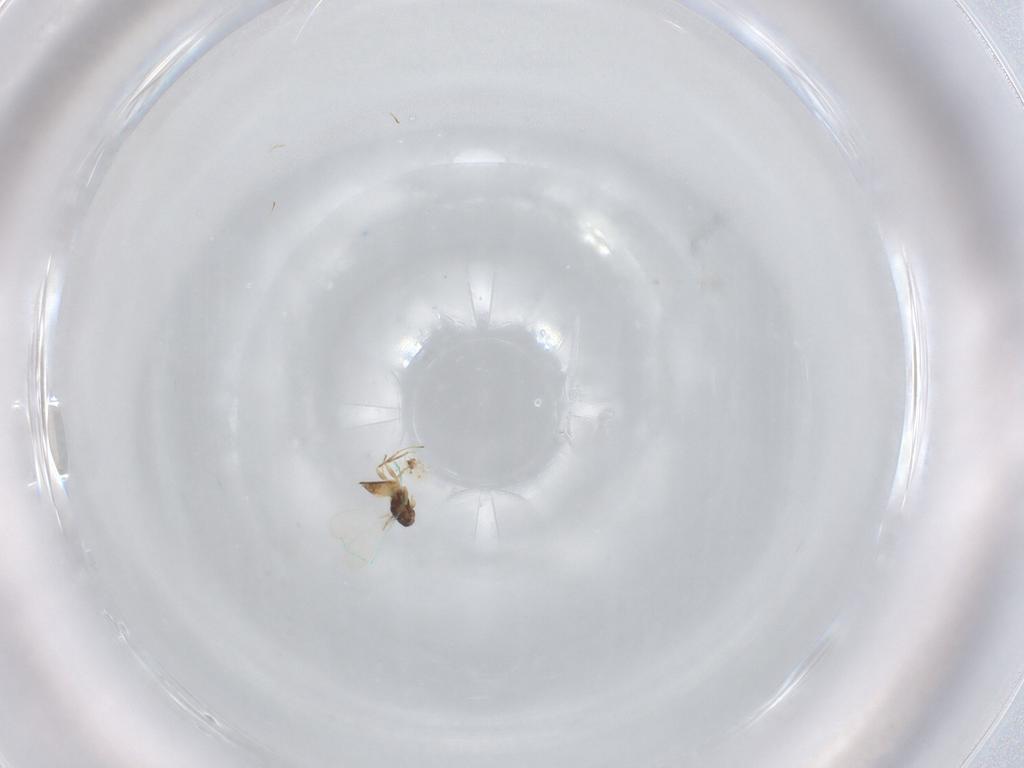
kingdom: Animalia
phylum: Arthropoda
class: Insecta
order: Hymenoptera
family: Mymaridae
